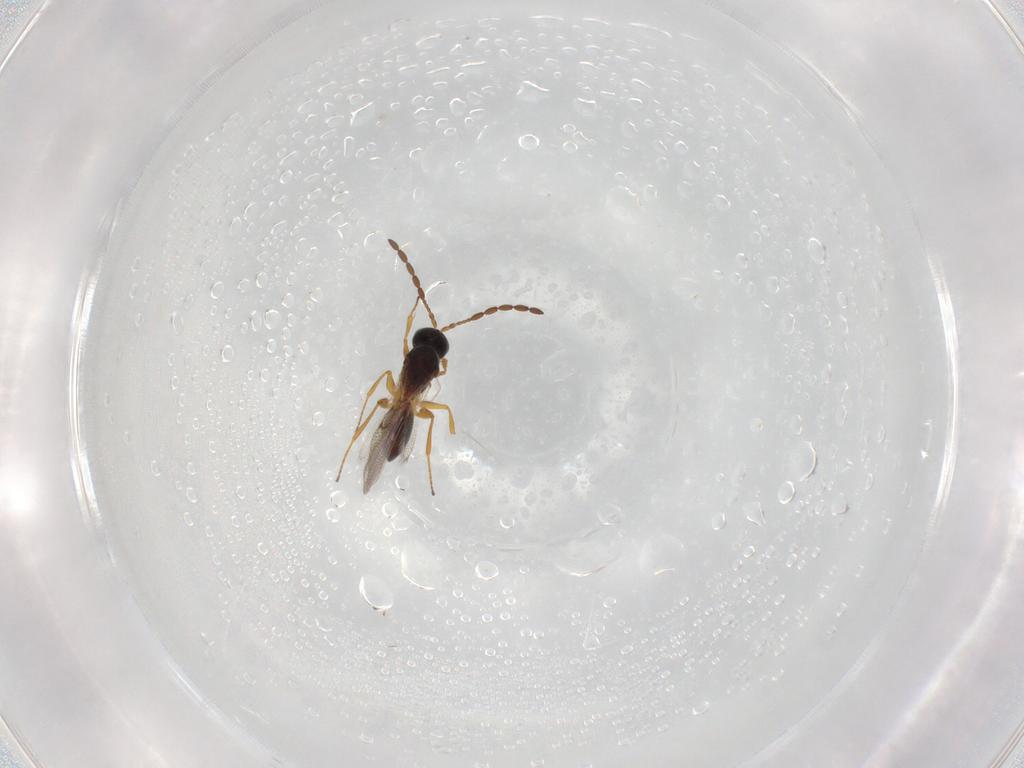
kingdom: Animalia
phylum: Arthropoda
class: Insecta
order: Hymenoptera
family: Figitidae
